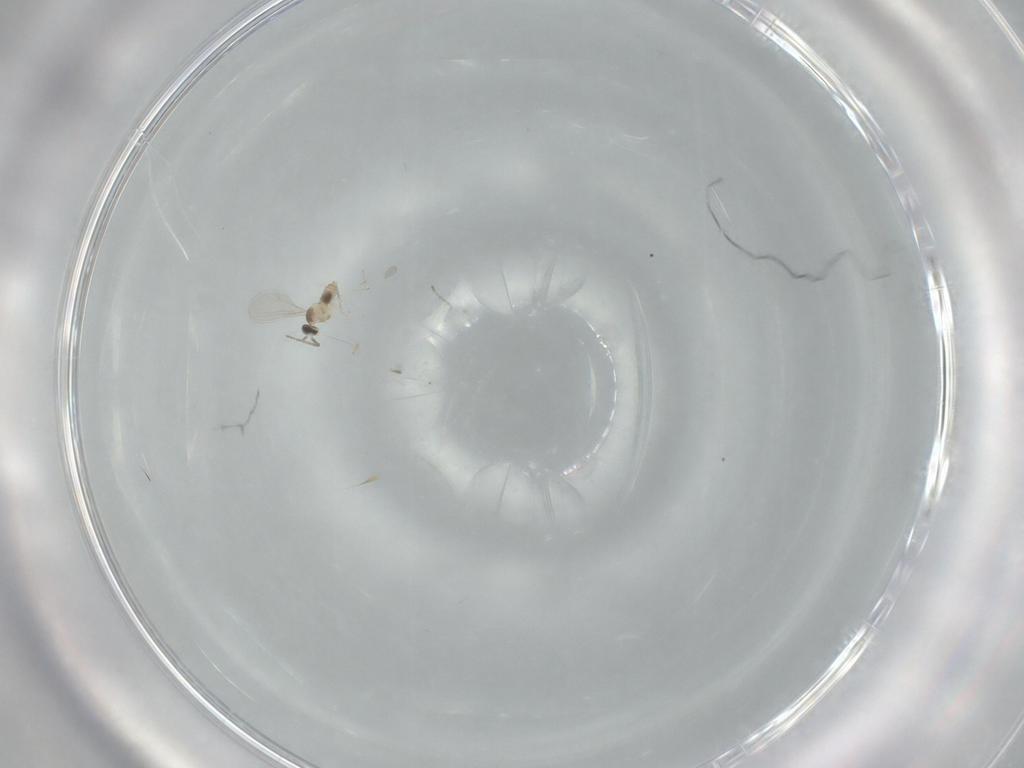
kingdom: Animalia
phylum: Arthropoda
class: Insecta
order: Diptera
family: Cecidomyiidae
